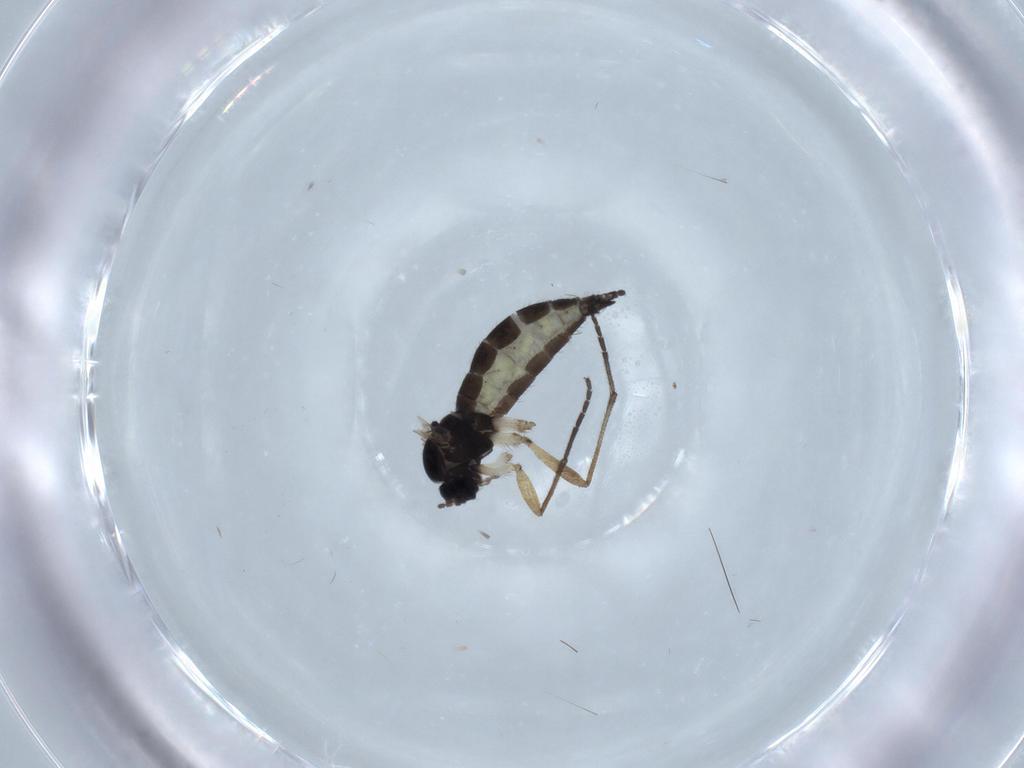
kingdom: Animalia
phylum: Arthropoda
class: Insecta
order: Diptera
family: Sciaridae
